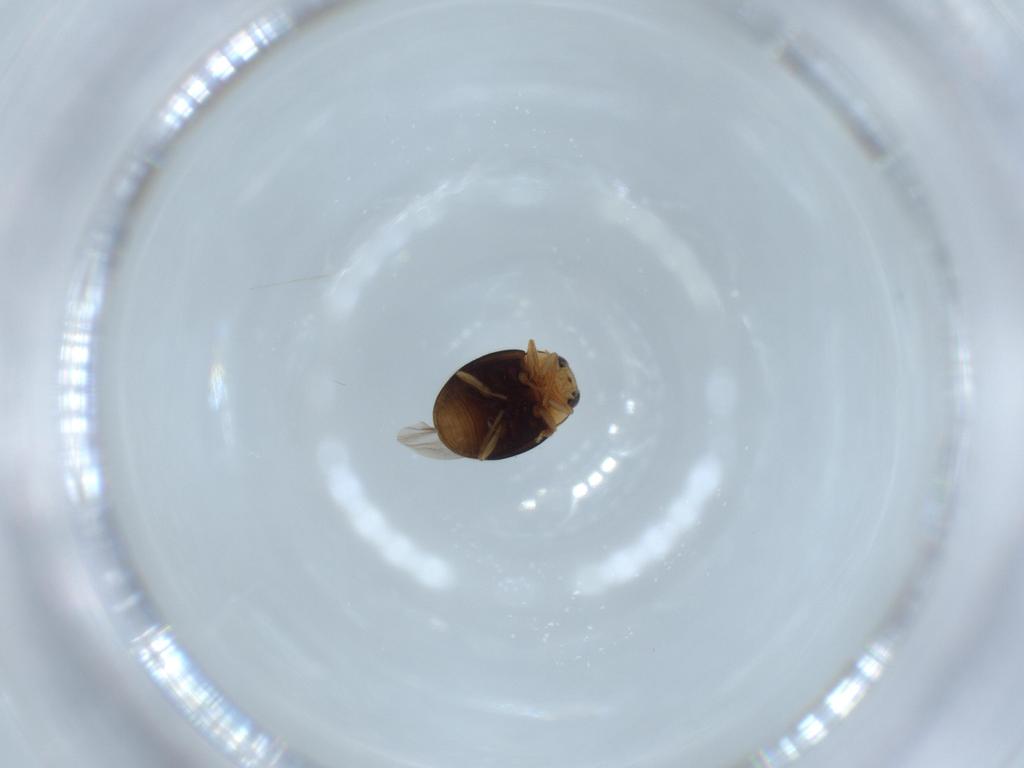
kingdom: Animalia
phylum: Arthropoda
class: Insecta
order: Coleoptera
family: Coccinellidae
